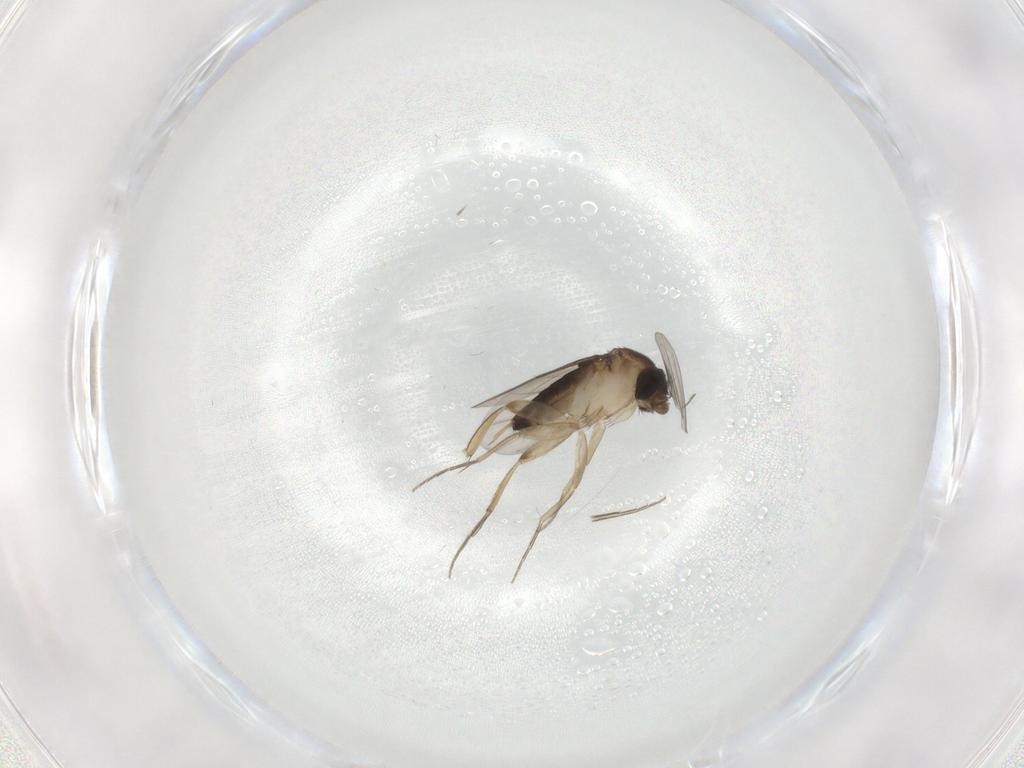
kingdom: Animalia
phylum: Arthropoda
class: Insecta
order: Diptera
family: Phoridae
